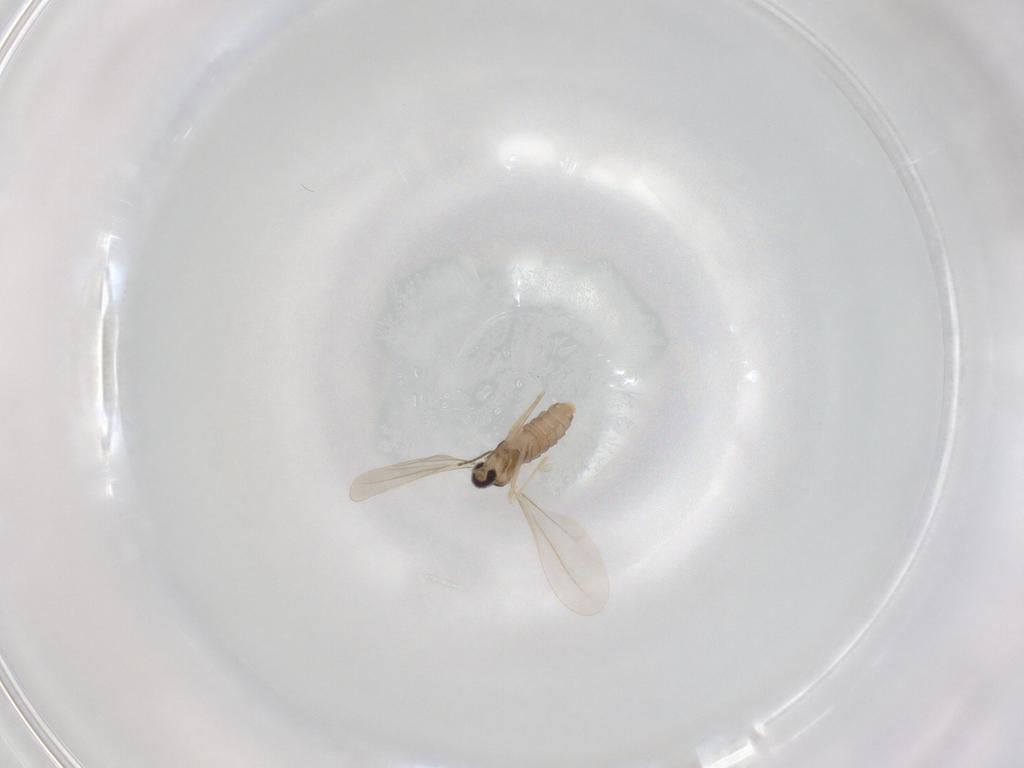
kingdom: Animalia
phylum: Arthropoda
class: Insecta
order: Diptera
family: Cecidomyiidae
